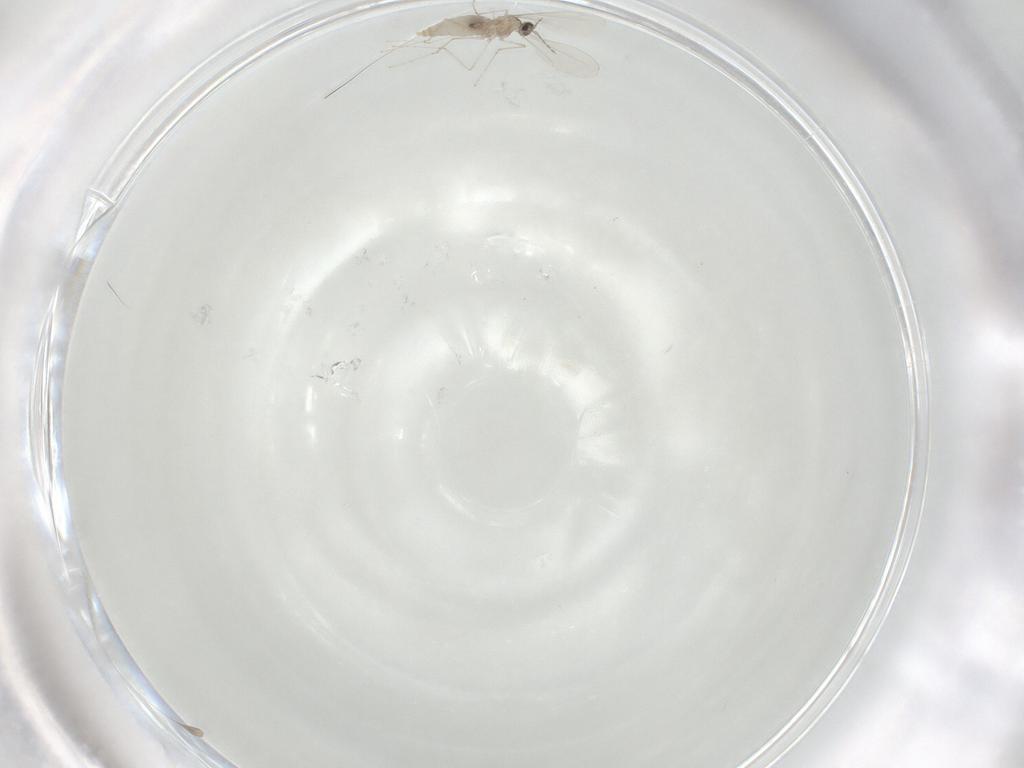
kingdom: Animalia
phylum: Arthropoda
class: Insecta
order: Diptera
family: Cecidomyiidae
